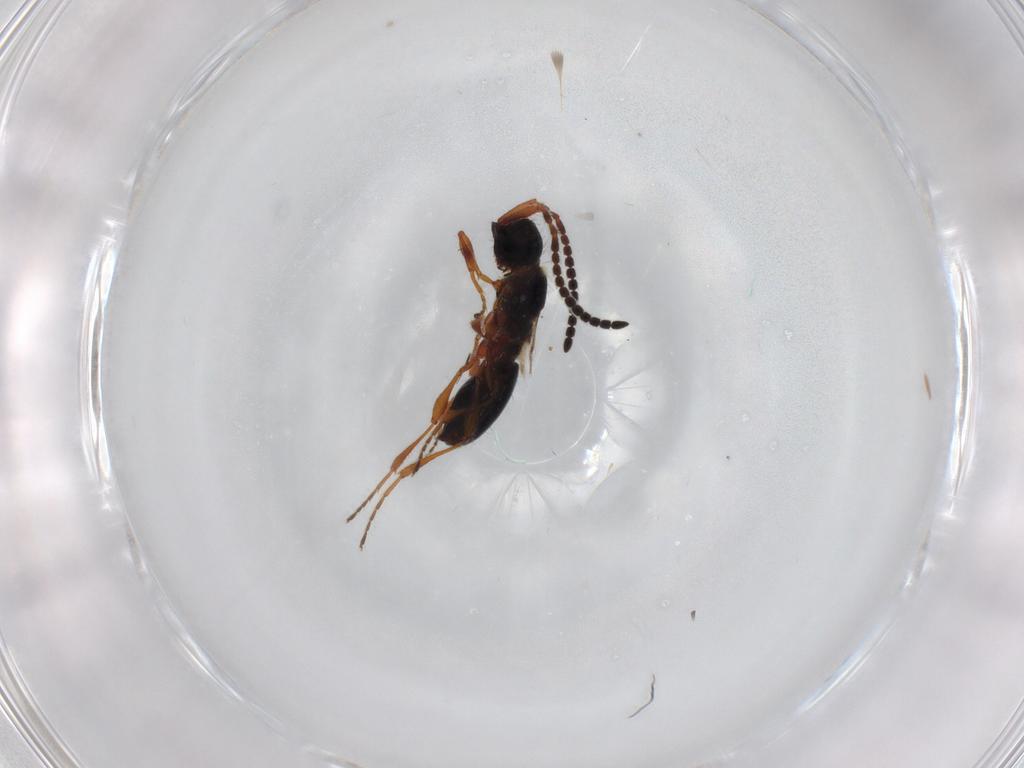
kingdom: Animalia
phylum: Arthropoda
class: Insecta
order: Hymenoptera
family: Diapriidae
